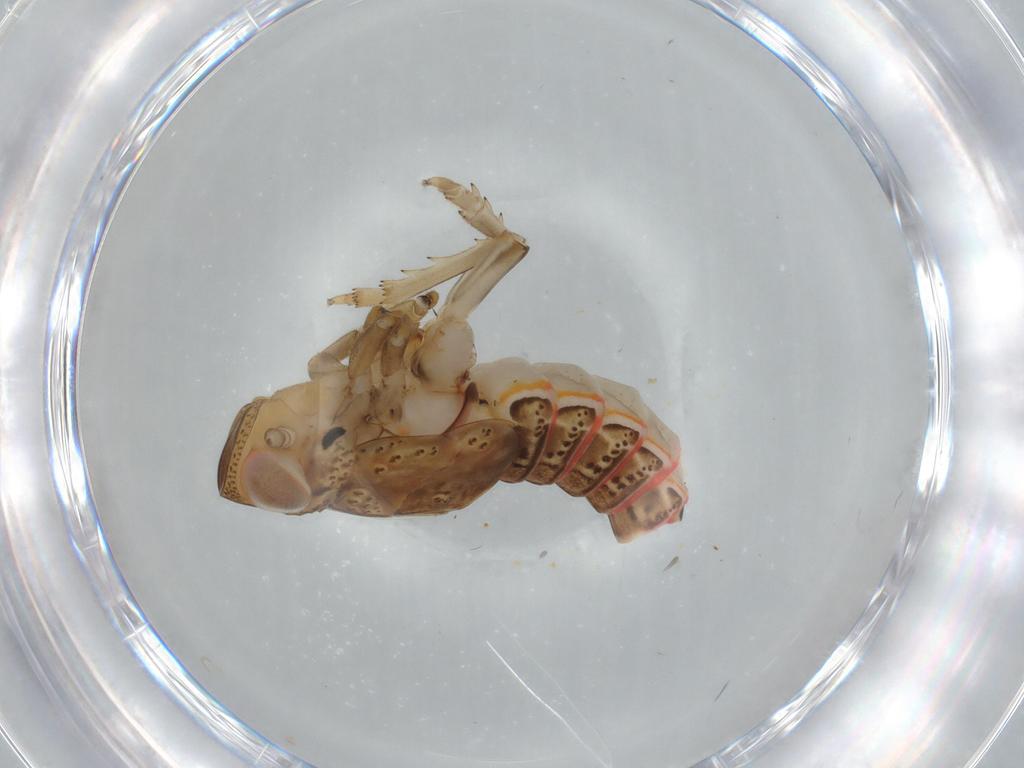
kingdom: Animalia
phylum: Arthropoda
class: Insecta
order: Hemiptera
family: Issidae
